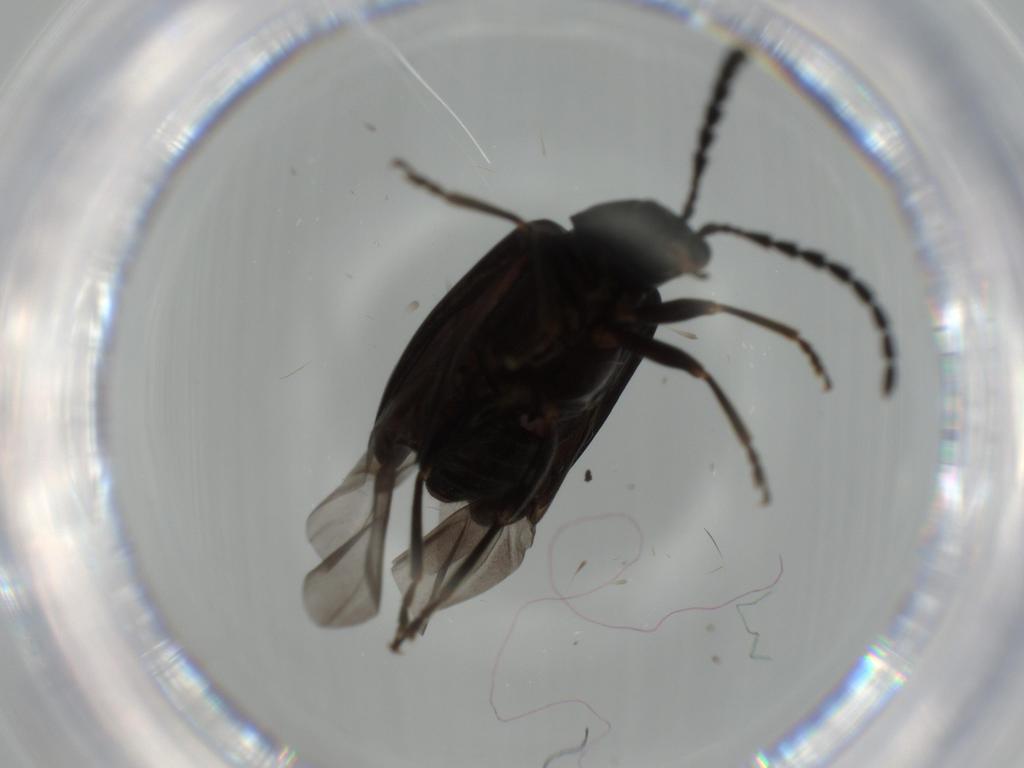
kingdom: Animalia
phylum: Arthropoda
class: Insecta
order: Coleoptera
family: Chrysomelidae
